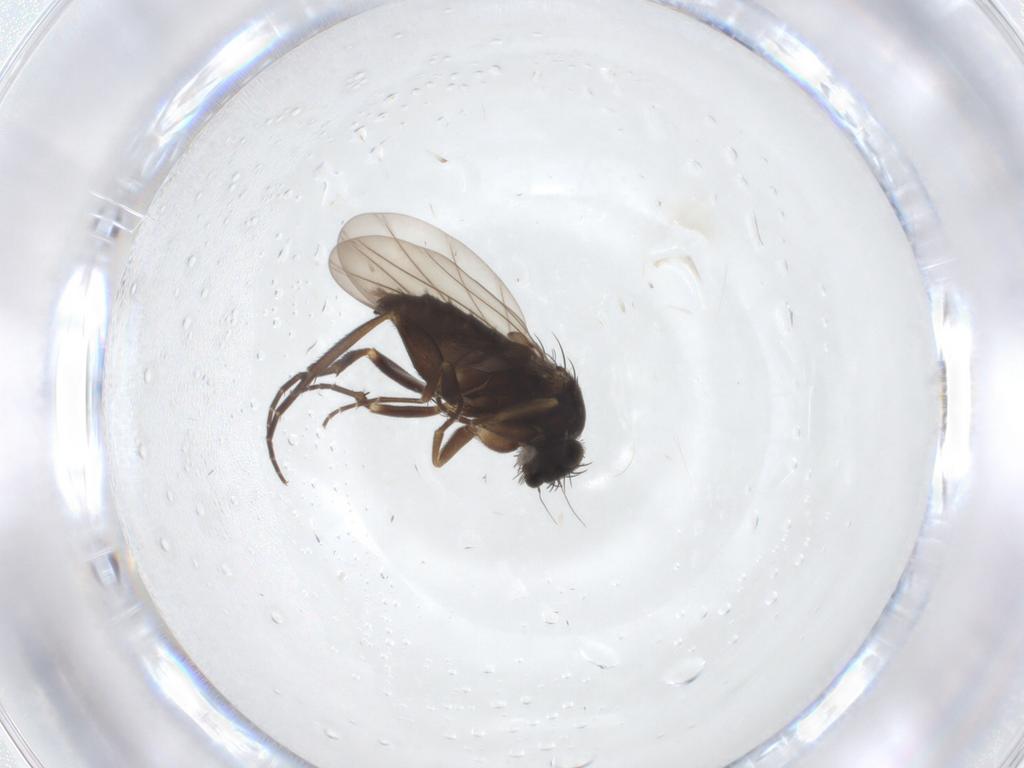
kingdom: Animalia
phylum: Arthropoda
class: Insecta
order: Diptera
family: Phoridae
